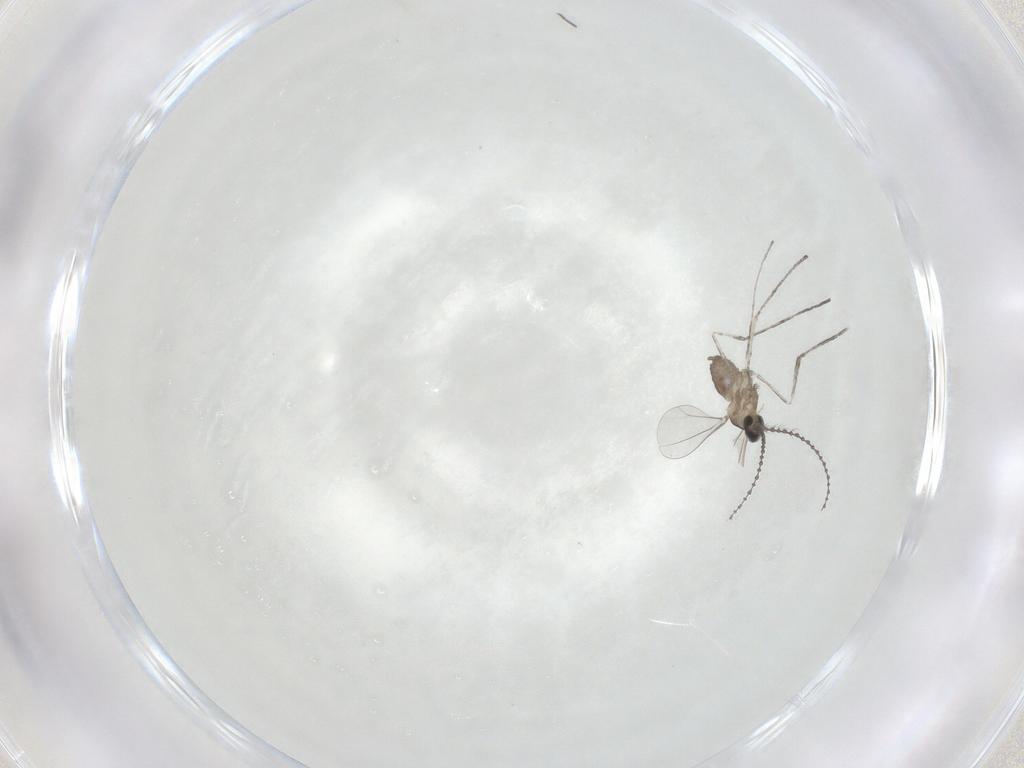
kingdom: Animalia
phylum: Arthropoda
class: Insecta
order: Diptera
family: Cecidomyiidae
